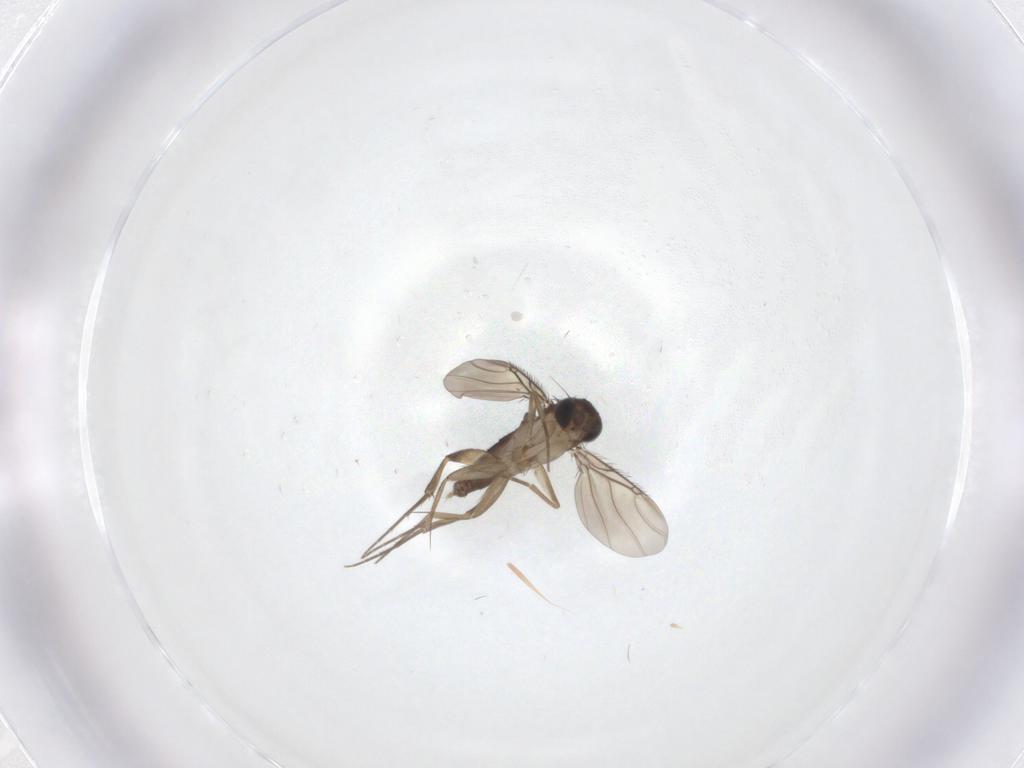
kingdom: Animalia
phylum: Arthropoda
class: Insecta
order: Diptera
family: Phoridae
